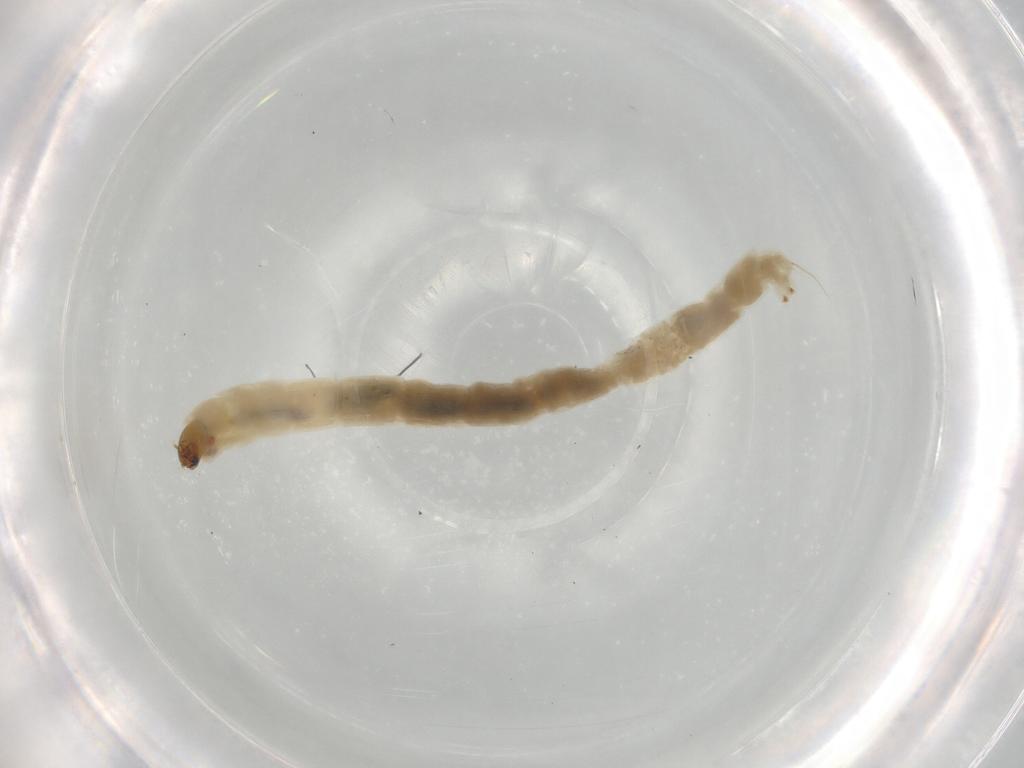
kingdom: Animalia
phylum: Arthropoda
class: Insecta
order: Diptera
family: Chironomidae
